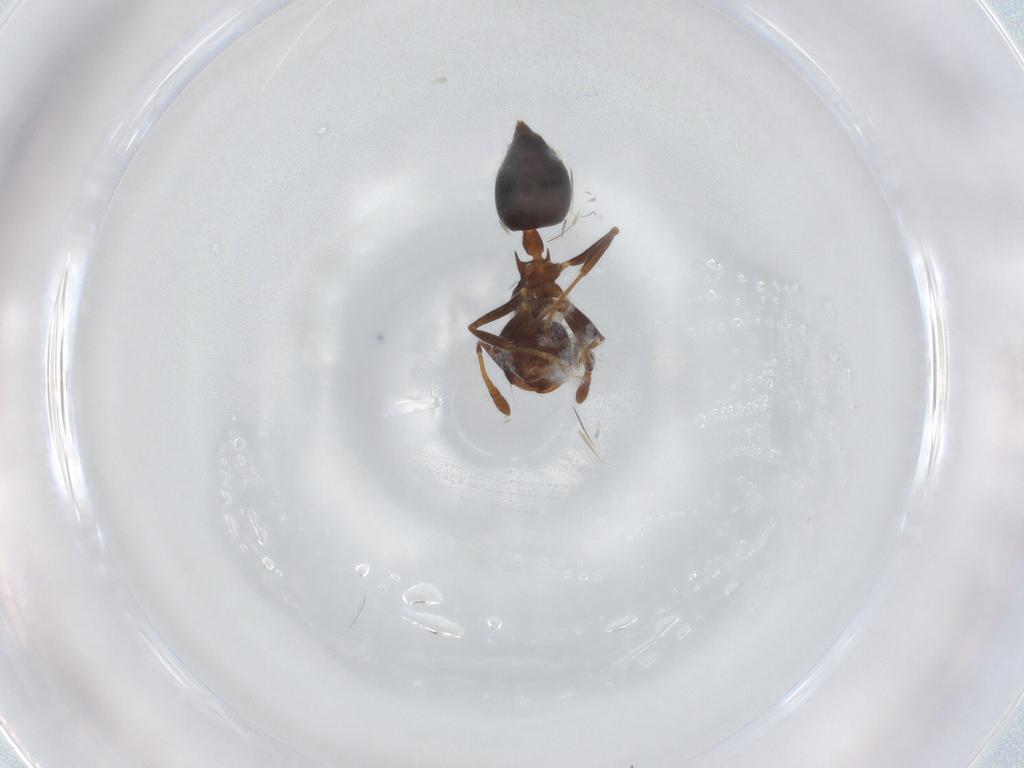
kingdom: Animalia
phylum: Arthropoda
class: Insecta
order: Hymenoptera
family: Formicidae
